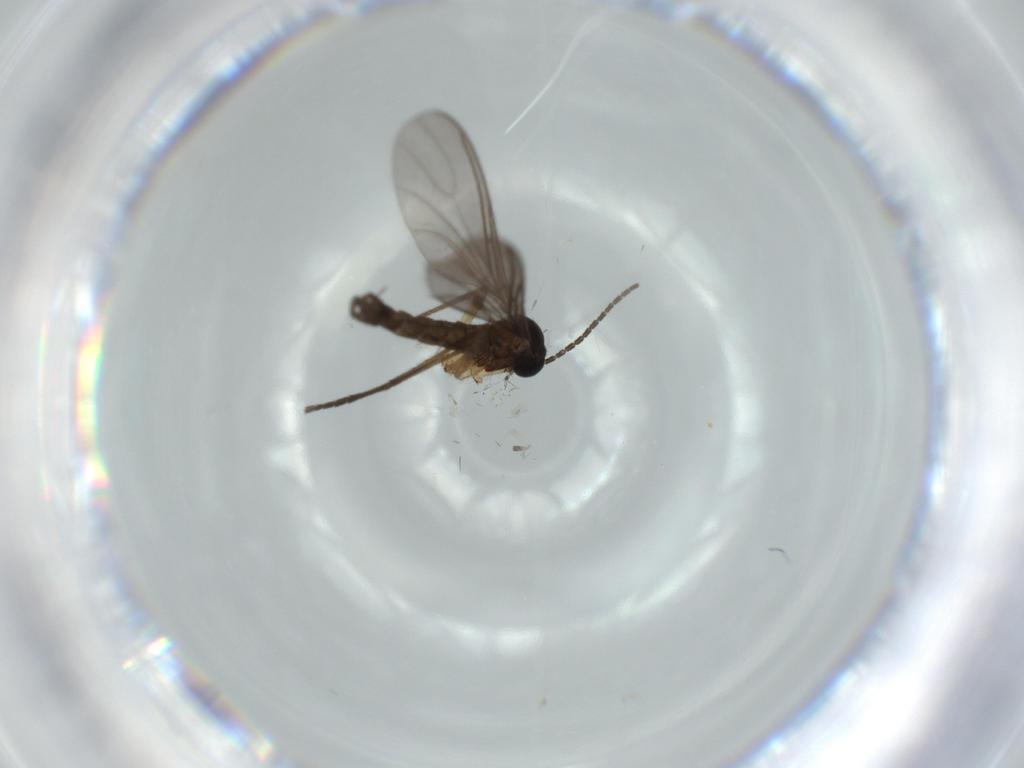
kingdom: Animalia
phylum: Arthropoda
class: Insecta
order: Diptera
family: Sciaridae
